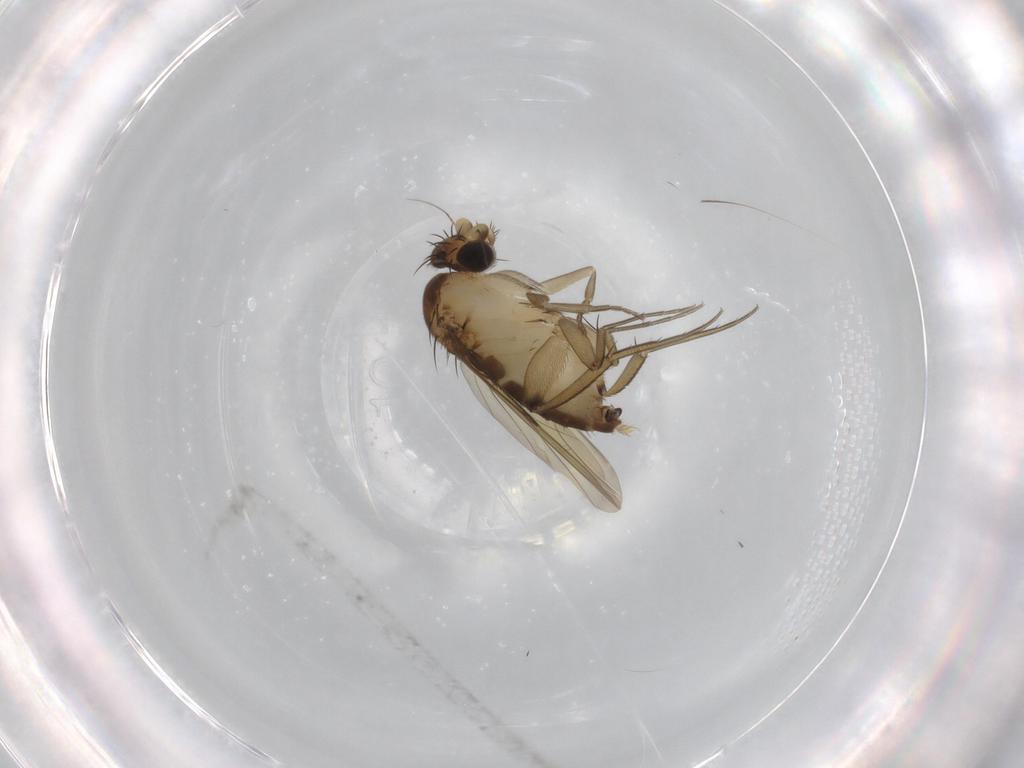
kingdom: Animalia
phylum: Arthropoda
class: Insecta
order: Diptera
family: Phoridae
